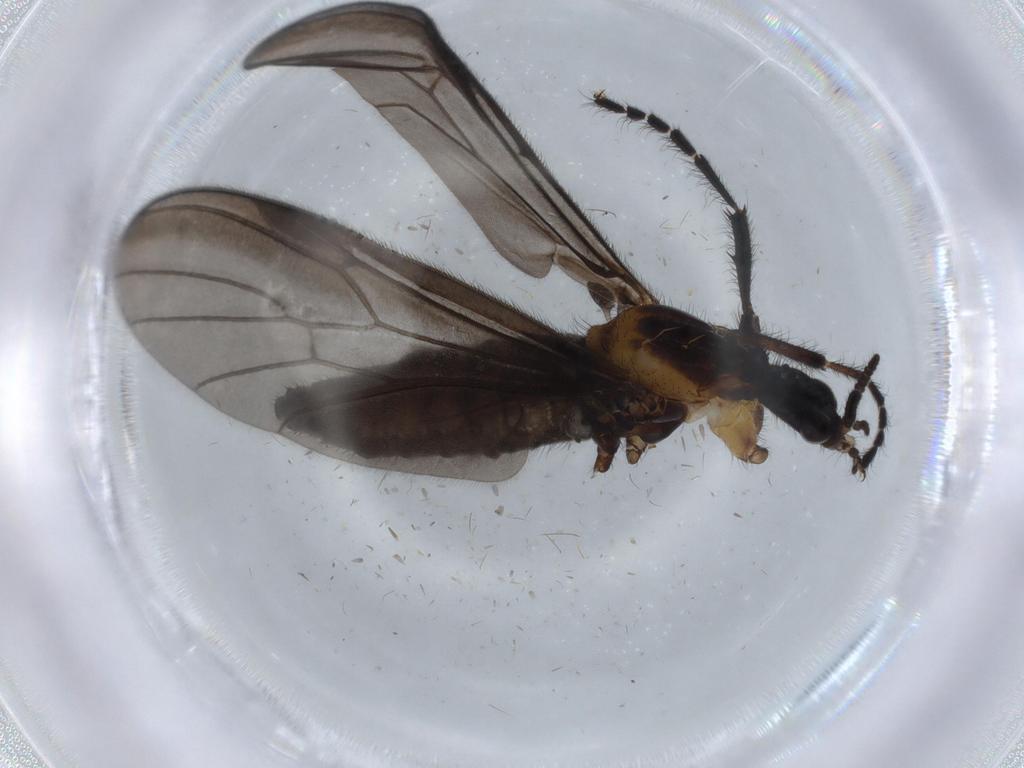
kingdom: Animalia
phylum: Arthropoda
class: Insecta
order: Diptera
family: Bibionidae
